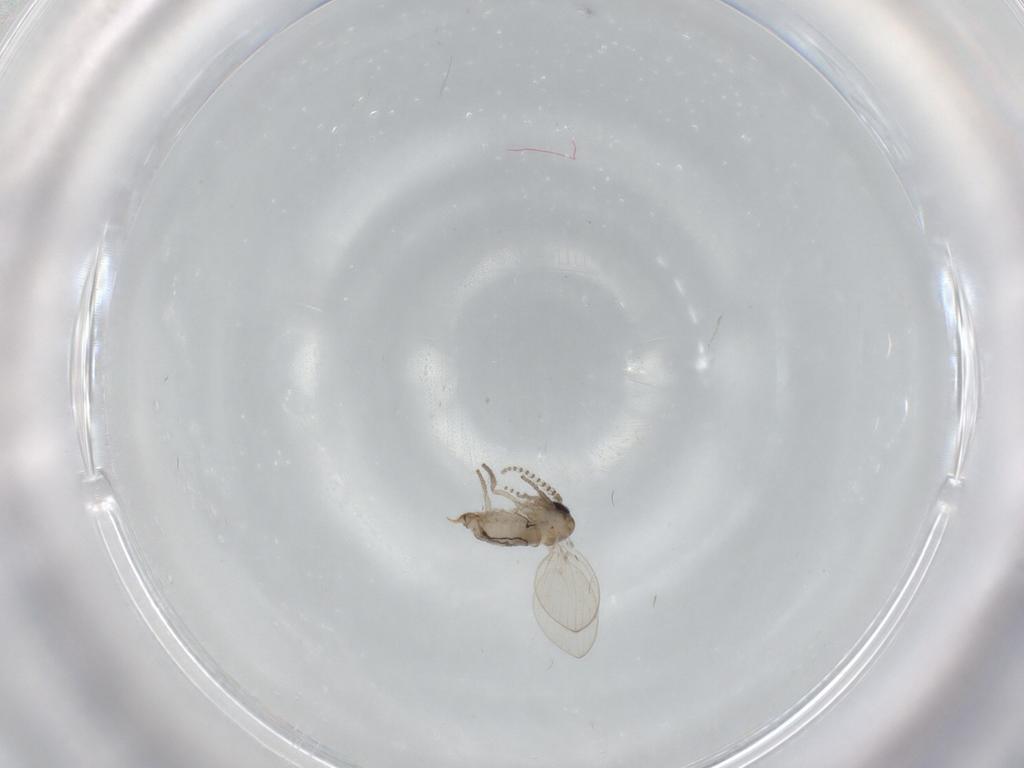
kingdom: Animalia
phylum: Arthropoda
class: Insecta
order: Diptera
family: Psychodidae
